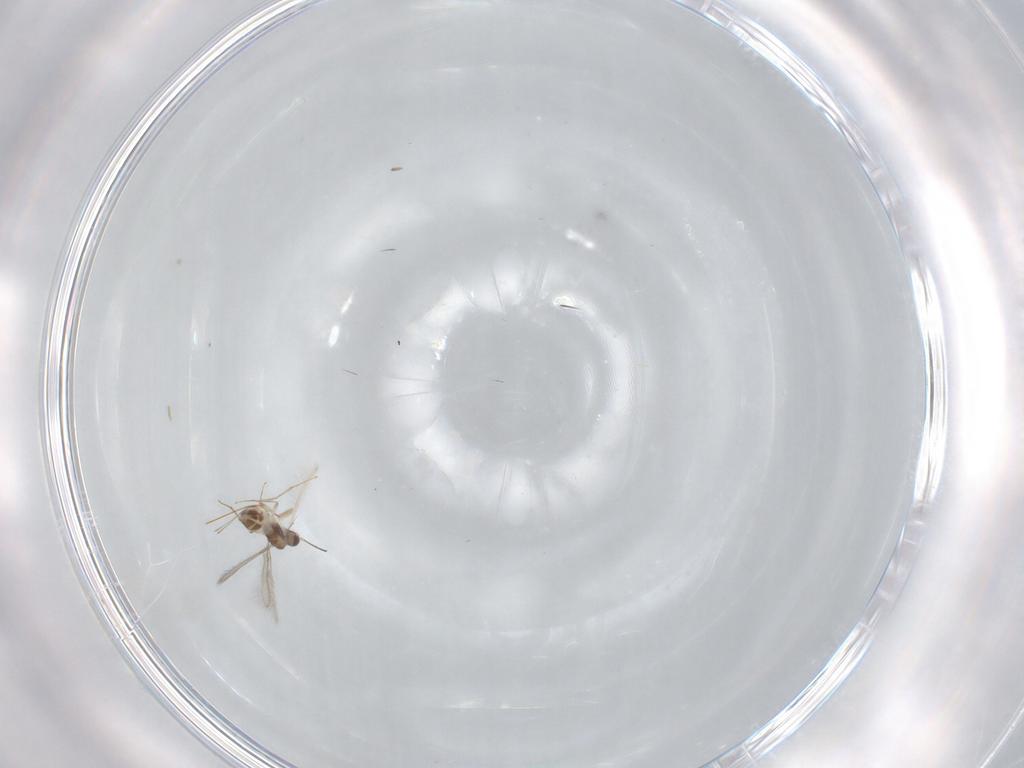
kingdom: Animalia
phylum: Arthropoda
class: Insecta
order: Hymenoptera
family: Mymaridae
